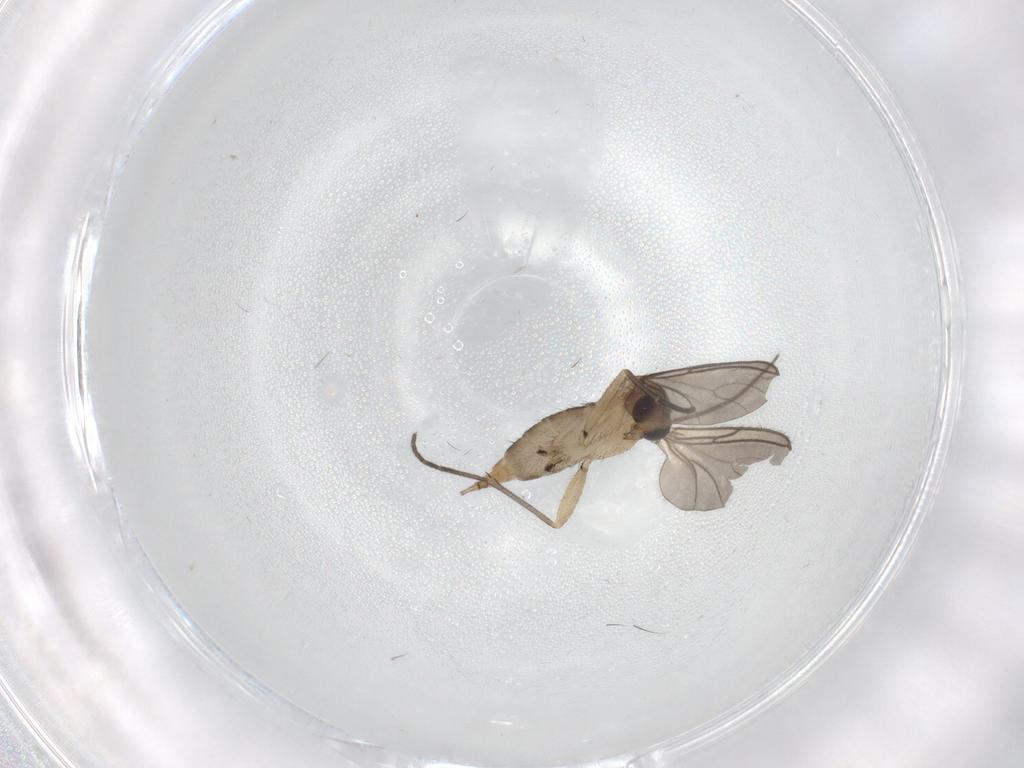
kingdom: Animalia
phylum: Arthropoda
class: Insecta
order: Diptera
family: Sciaridae
